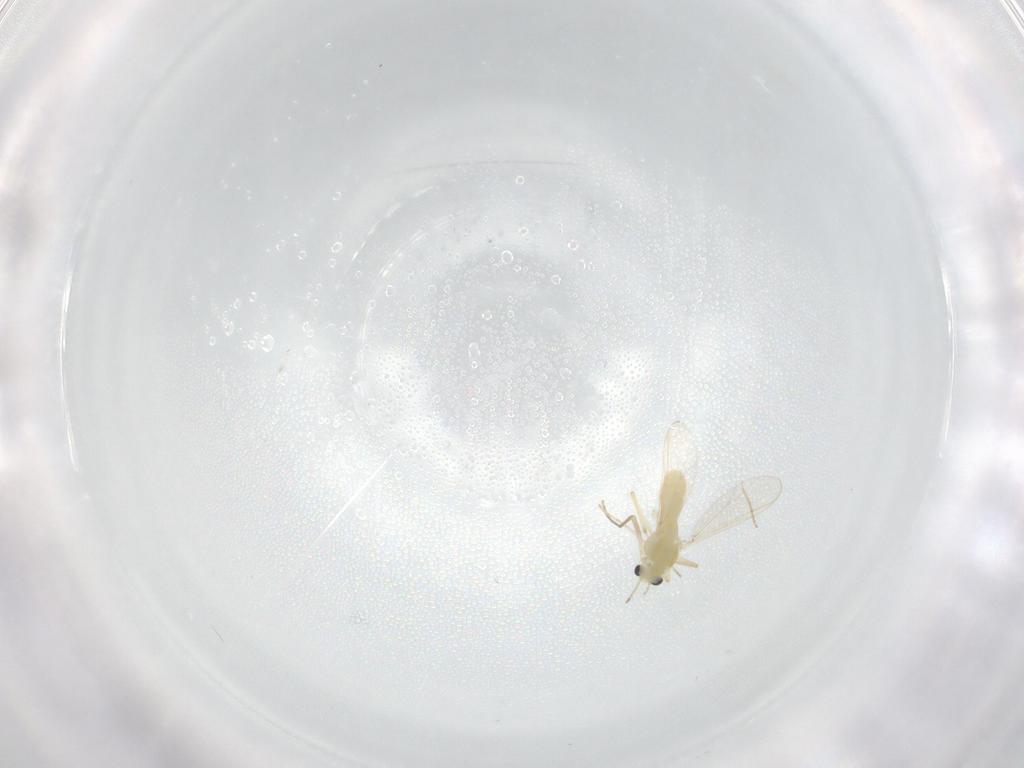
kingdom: Animalia
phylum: Arthropoda
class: Insecta
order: Diptera
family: Chironomidae
